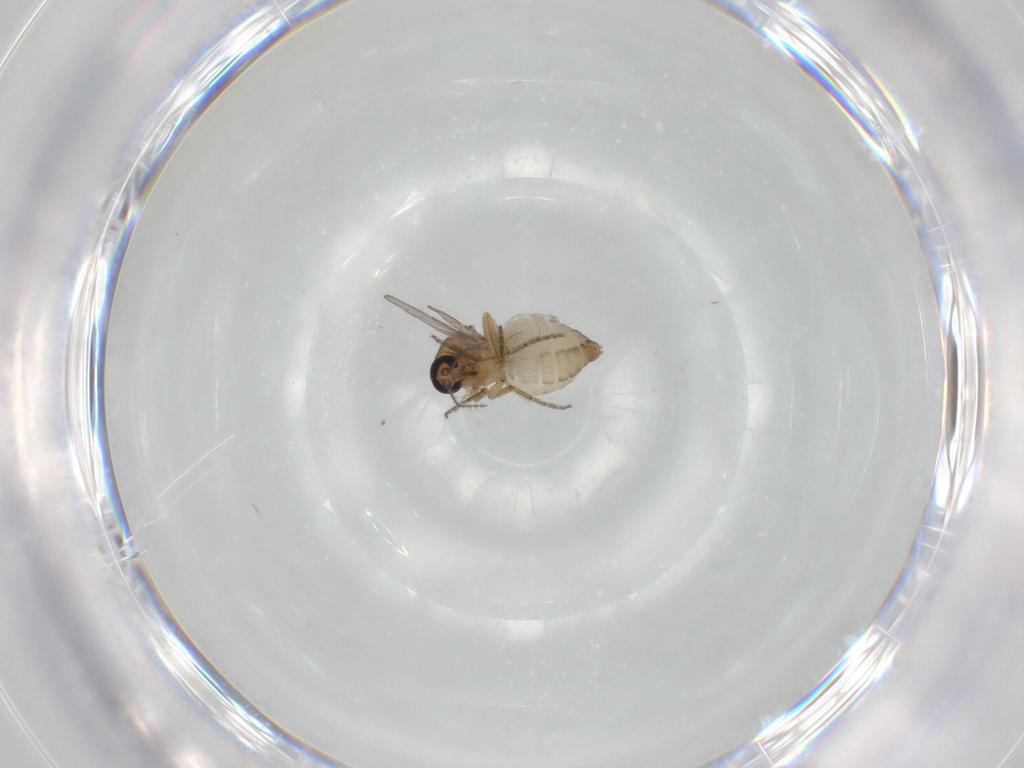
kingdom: Animalia
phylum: Arthropoda
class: Insecta
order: Diptera
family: Ceratopogonidae
